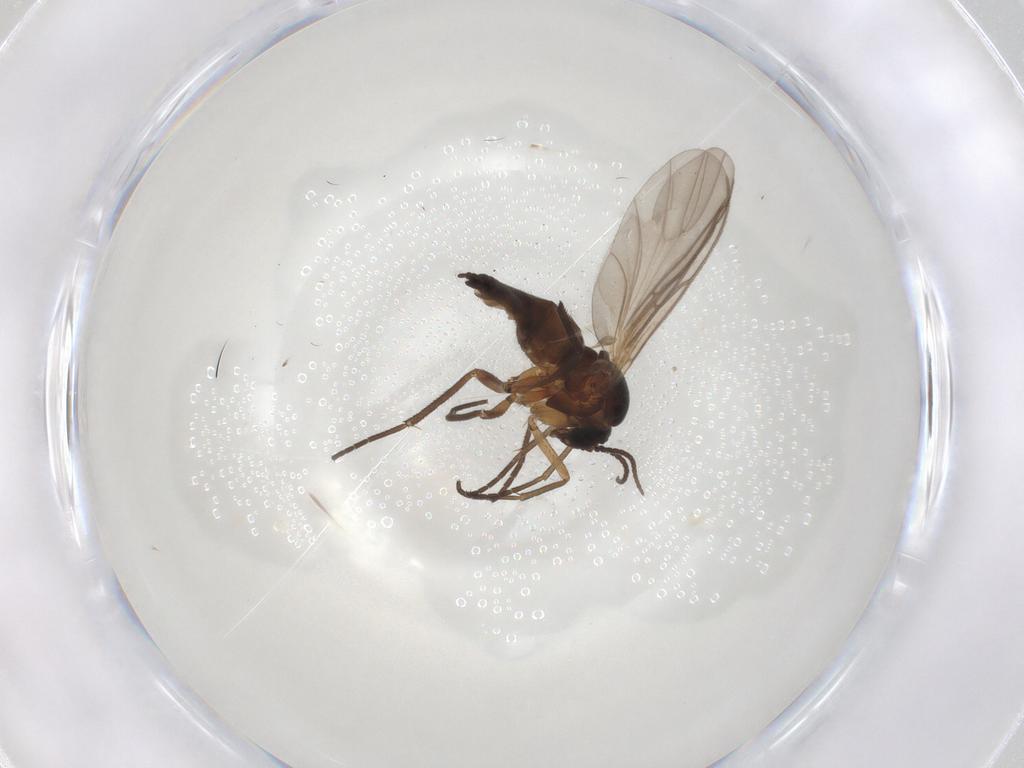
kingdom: Animalia
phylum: Arthropoda
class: Insecta
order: Diptera
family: Sciaridae
